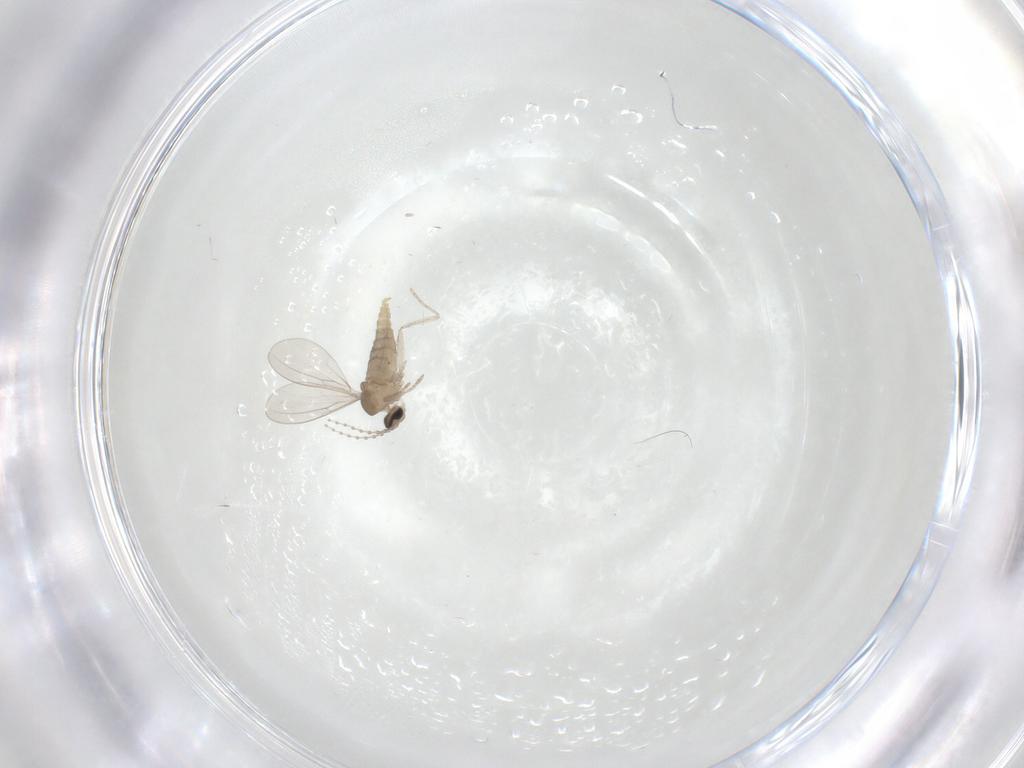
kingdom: Animalia
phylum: Arthropoda
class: Insecta
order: Diptera
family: Cecidomyiidae
